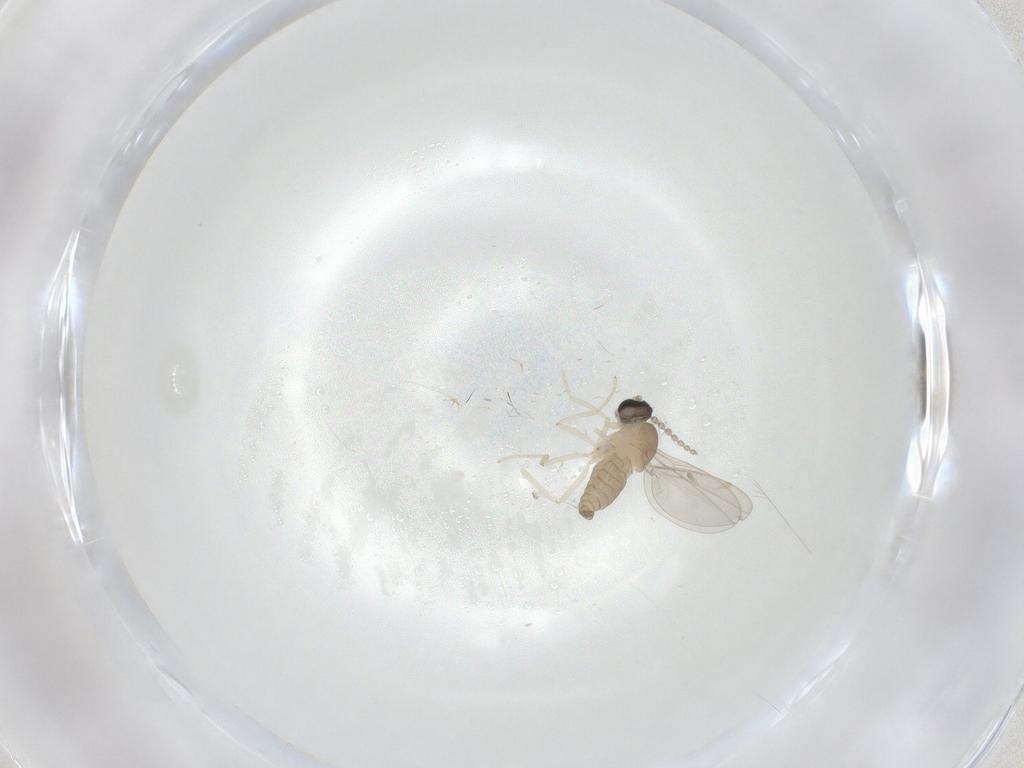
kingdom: Animalia
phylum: Arthropoda
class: Insecta
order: Diptera
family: Cecidomyiidae
